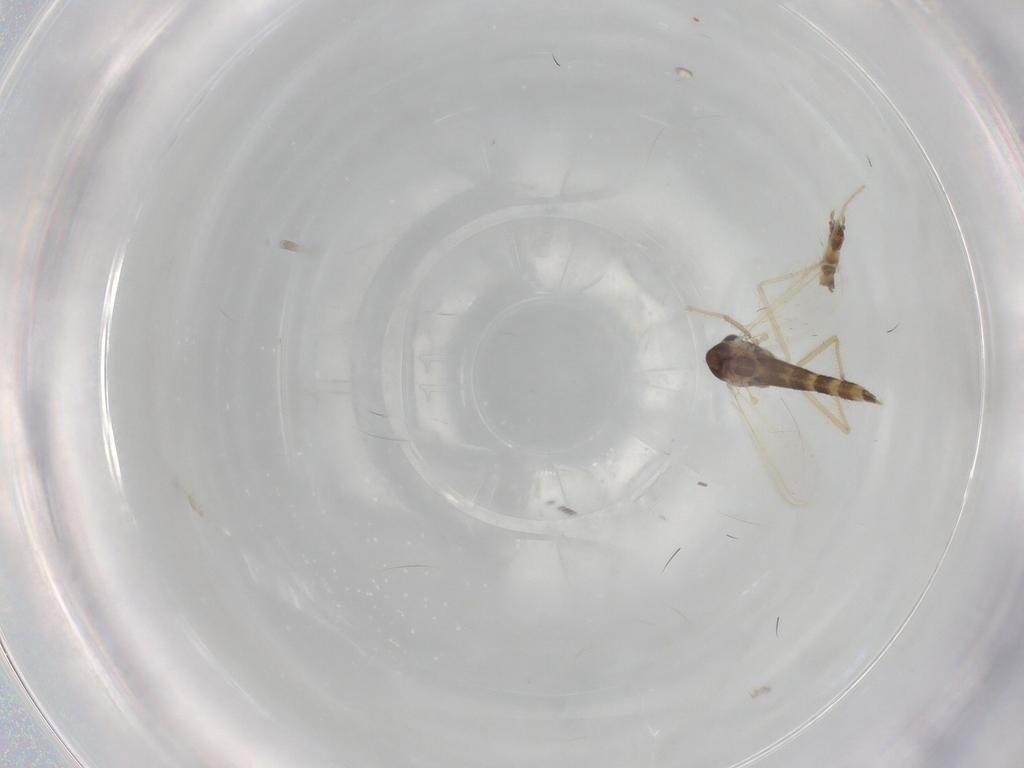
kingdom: Animalia
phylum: Arthropoda
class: Insecta
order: Diptera
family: Chironomidae
